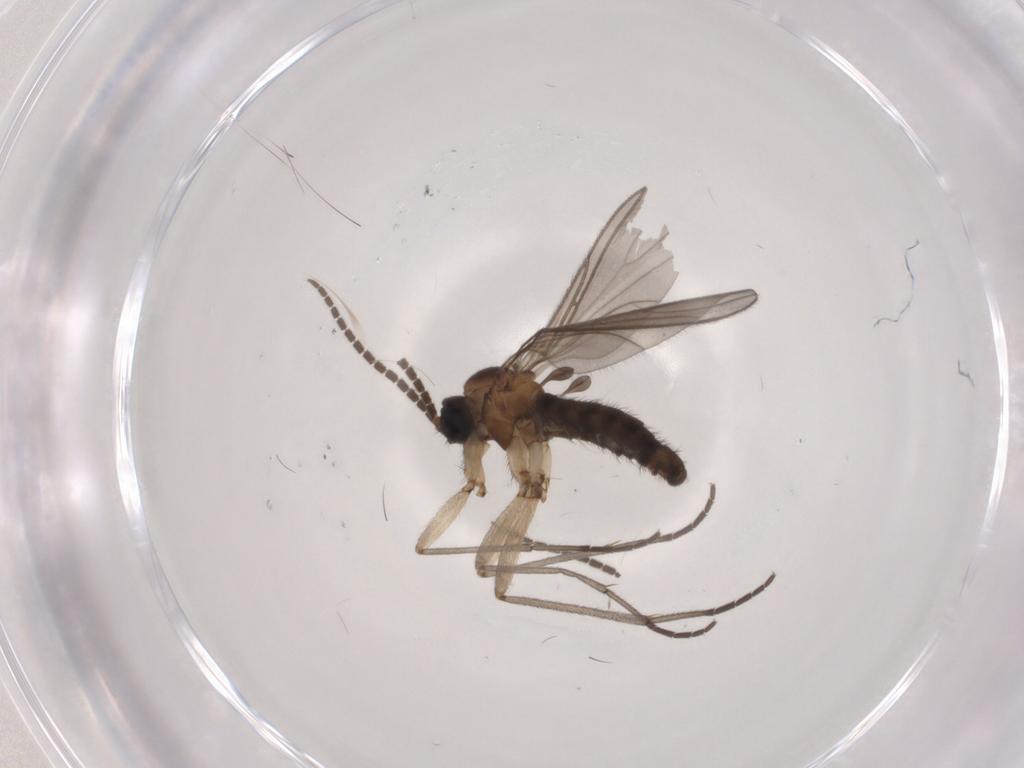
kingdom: Animalia
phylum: Arthropoda
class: Insecta
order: Diptera
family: Sciaridae
